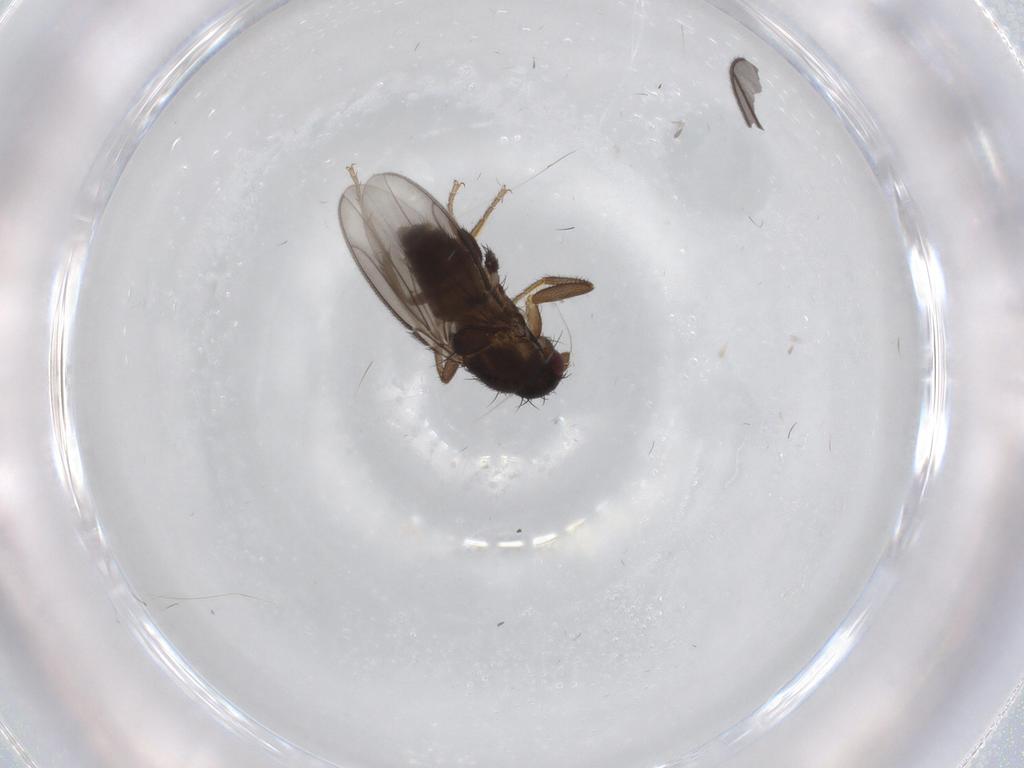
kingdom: Animalia
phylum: Arthropoda
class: Insecta
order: Diptera
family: Sphaeroceridae
